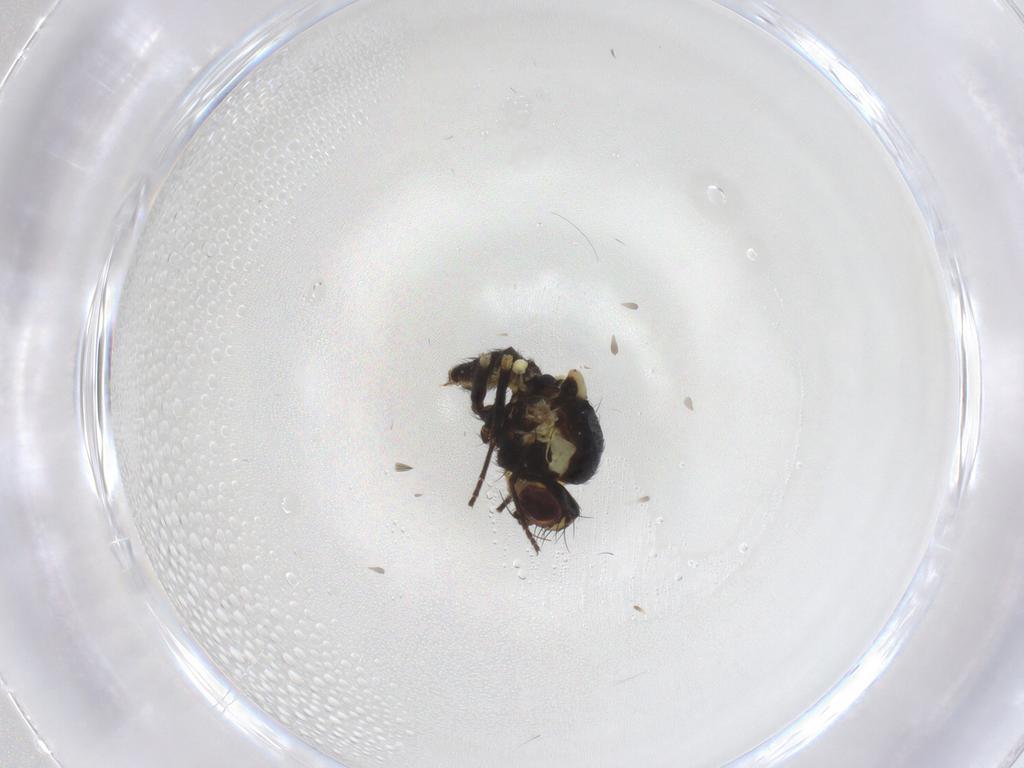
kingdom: Animalia
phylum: Arthropoda
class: Insecta
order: Diptera
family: Agromyzidae
